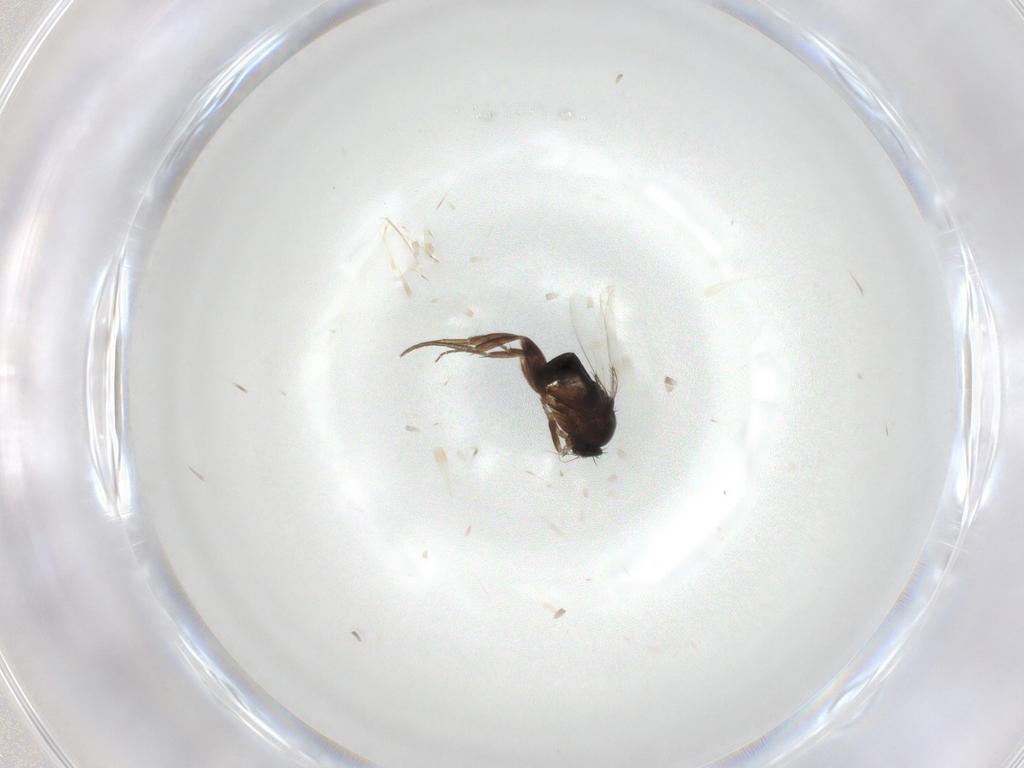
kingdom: Animalia
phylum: Arthropoda
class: Insecta
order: Diptera
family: Phoridae
